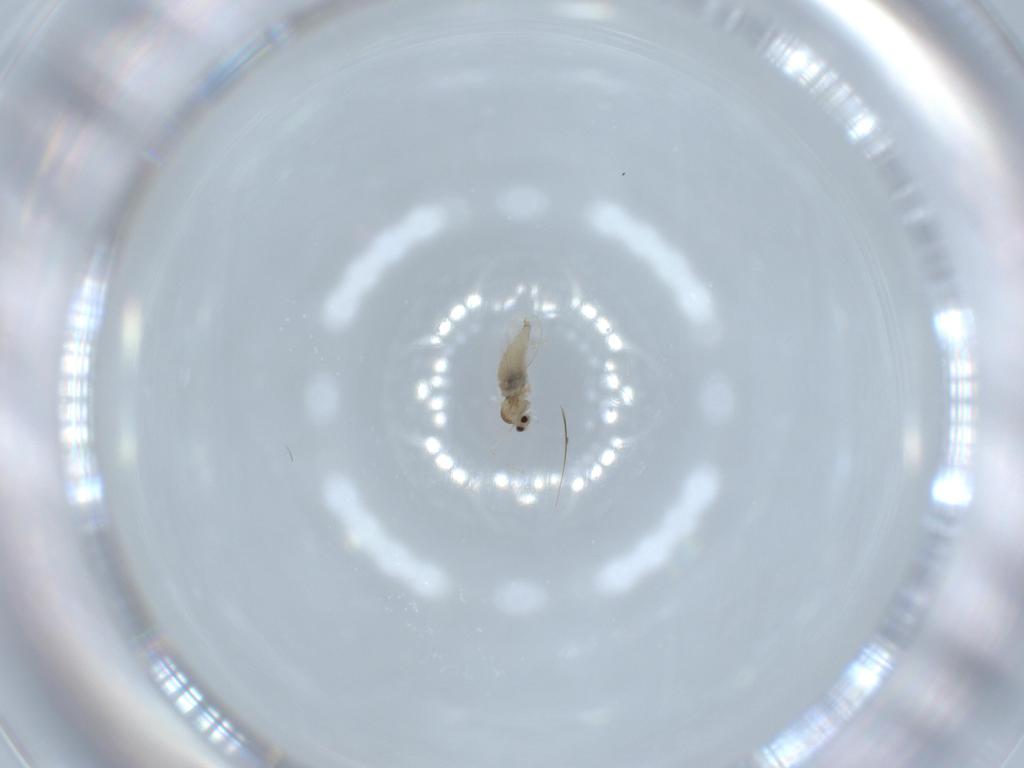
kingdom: Animalia
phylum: Arthropoda
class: Insecta
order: Diptera
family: Cecidomyiidae
